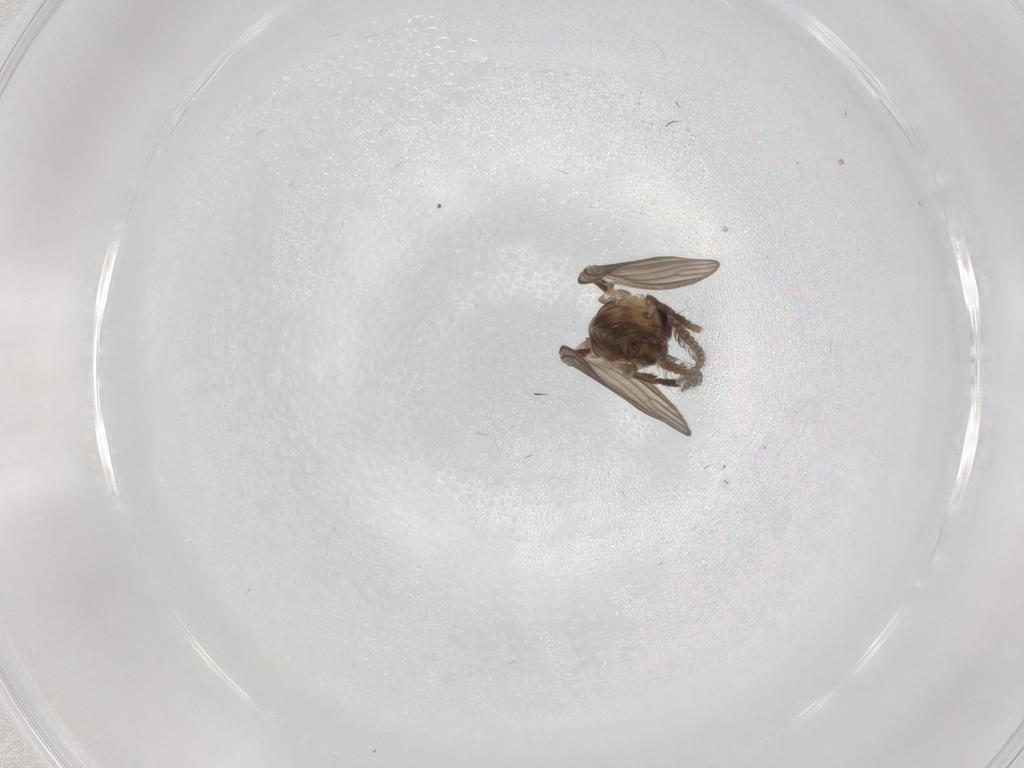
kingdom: Animalia
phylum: Arthropoda
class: Insecta
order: Diptera
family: Psychodidae
